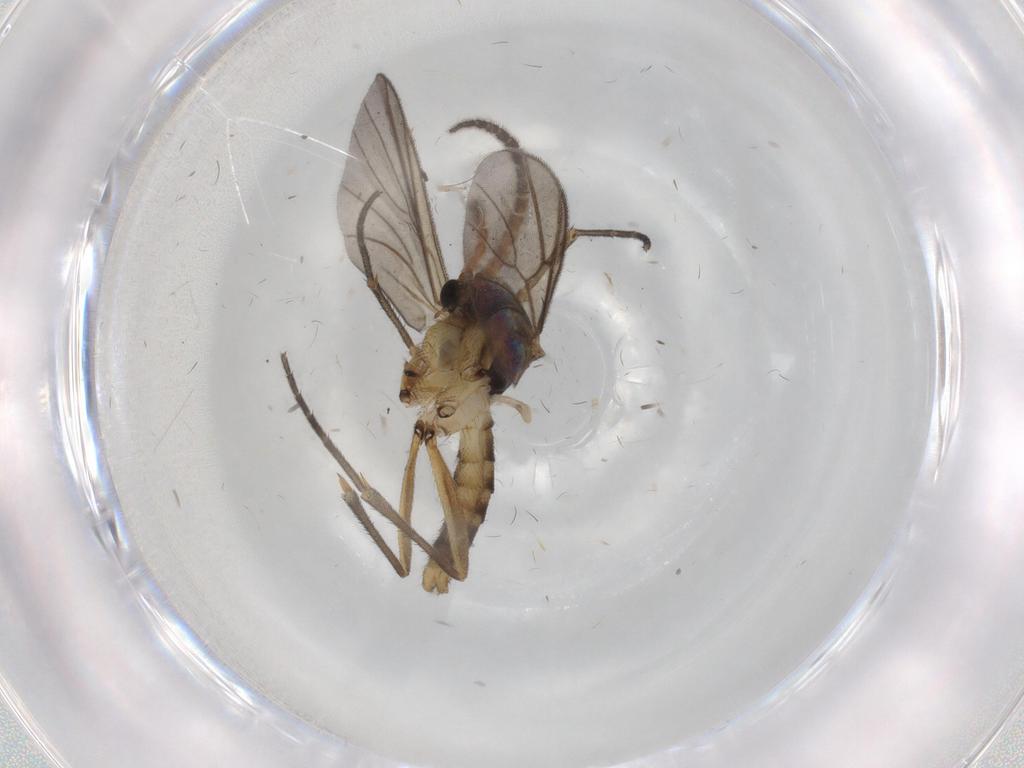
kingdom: Animalia
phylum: Arthropoda
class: Insecta
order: Diptera
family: Mycetophilidae
